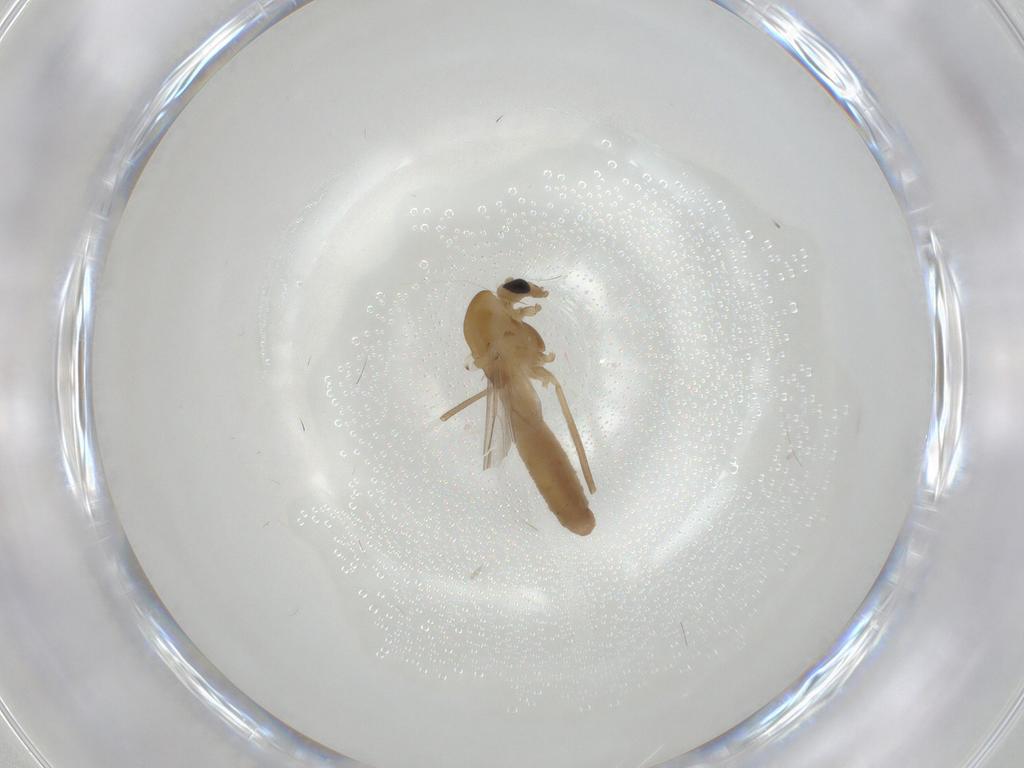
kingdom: Animalia
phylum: Arthropoda
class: Insecta
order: Diptera
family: Chironomidae
